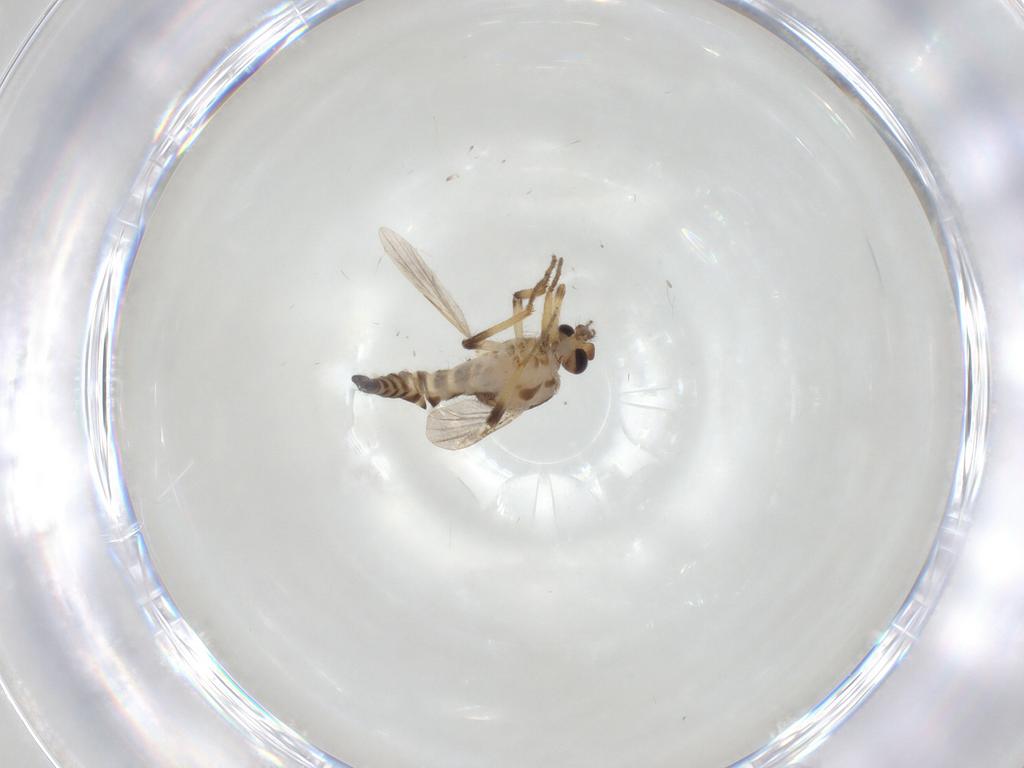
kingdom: Animalia
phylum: Arthropoda
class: Insecta
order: Diptera
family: Ceratopogonidae
